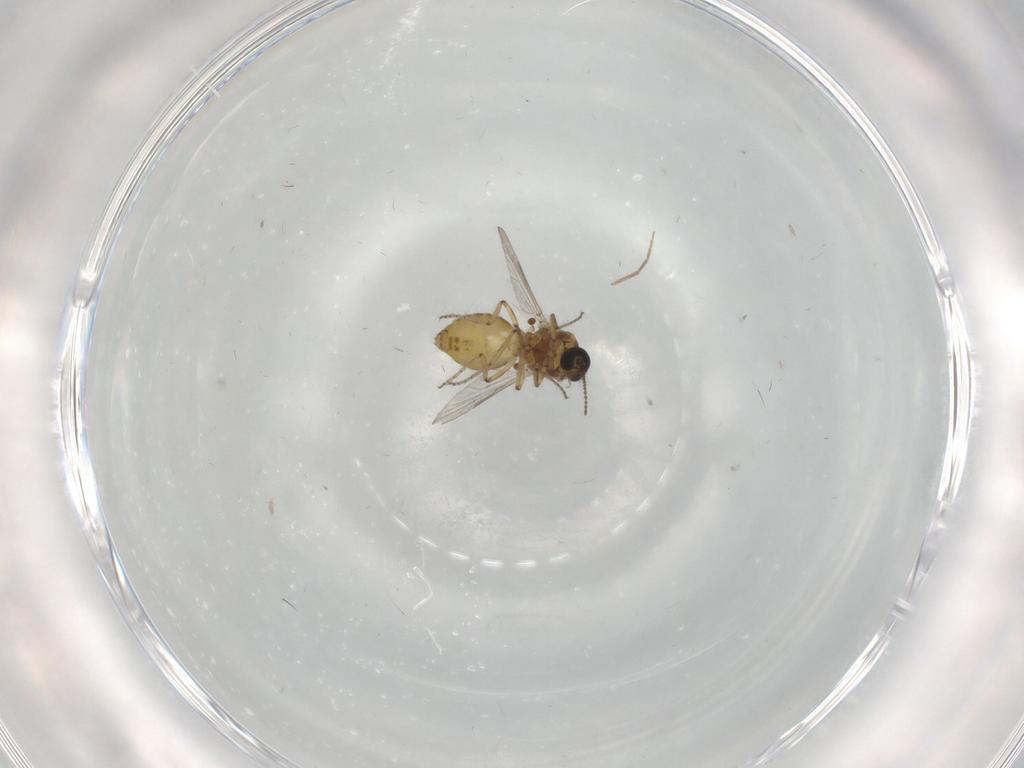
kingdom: Animalia
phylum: Arthropoda
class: Insecta
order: Diptera
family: Ceratopogonidae
